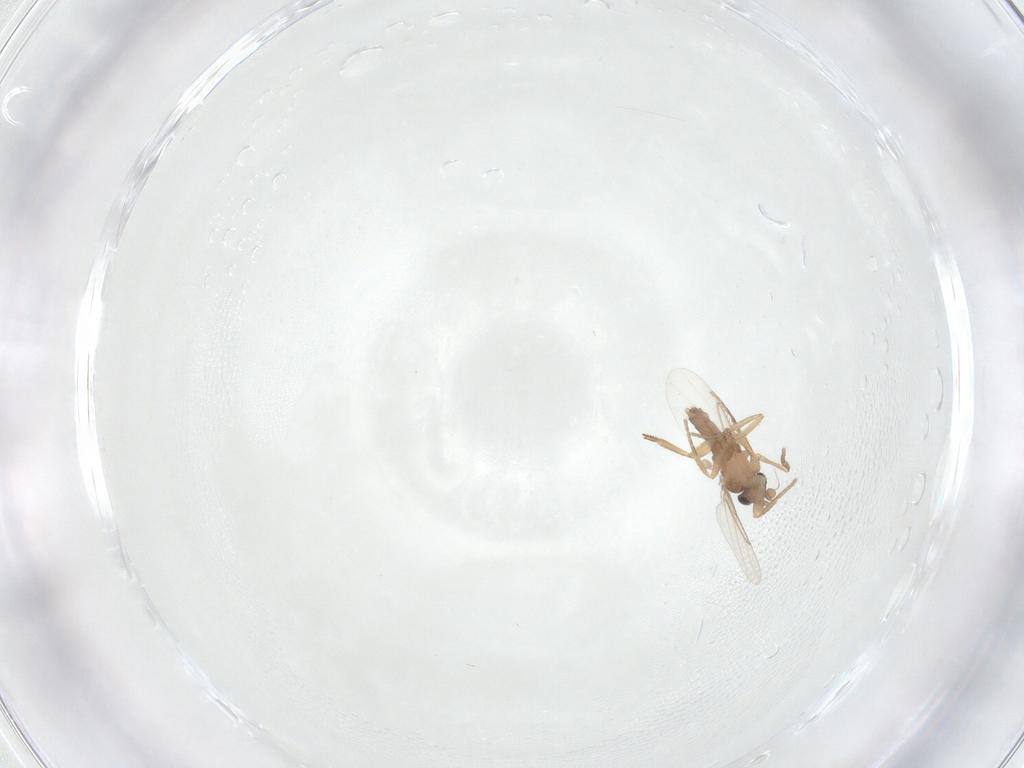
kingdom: Animalia
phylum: Arthropoda
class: Insecta
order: Diptera
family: Phoridae
